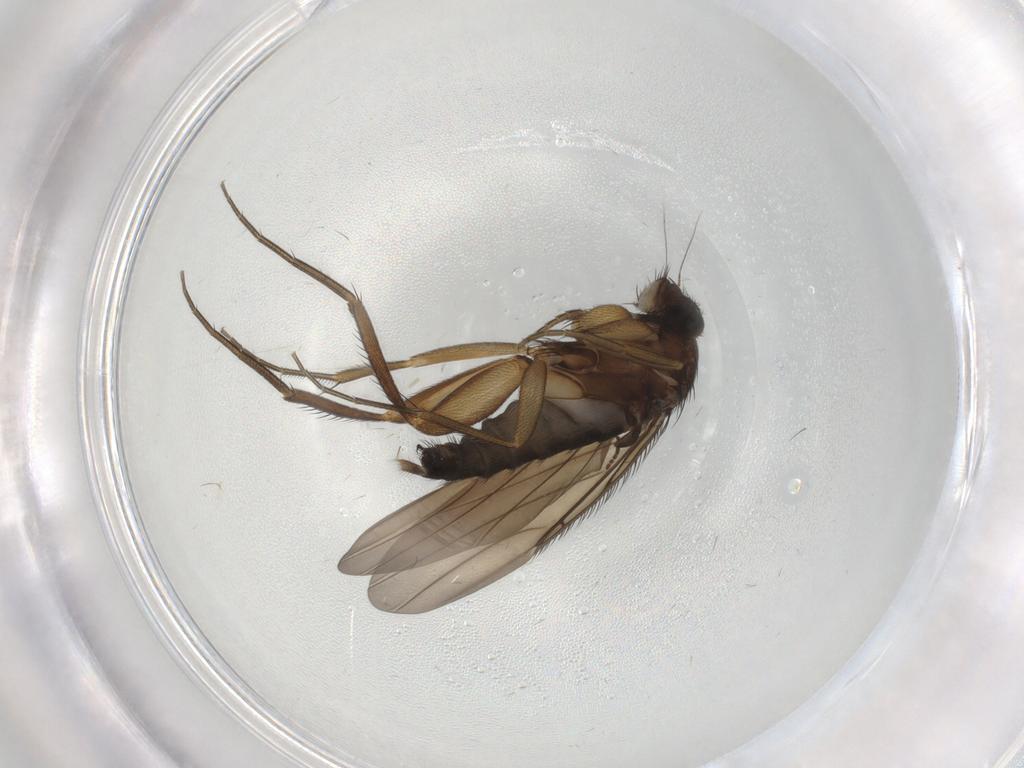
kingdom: Animalia
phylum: Arthropoda
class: Insecta
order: Diptera
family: Phoridae
